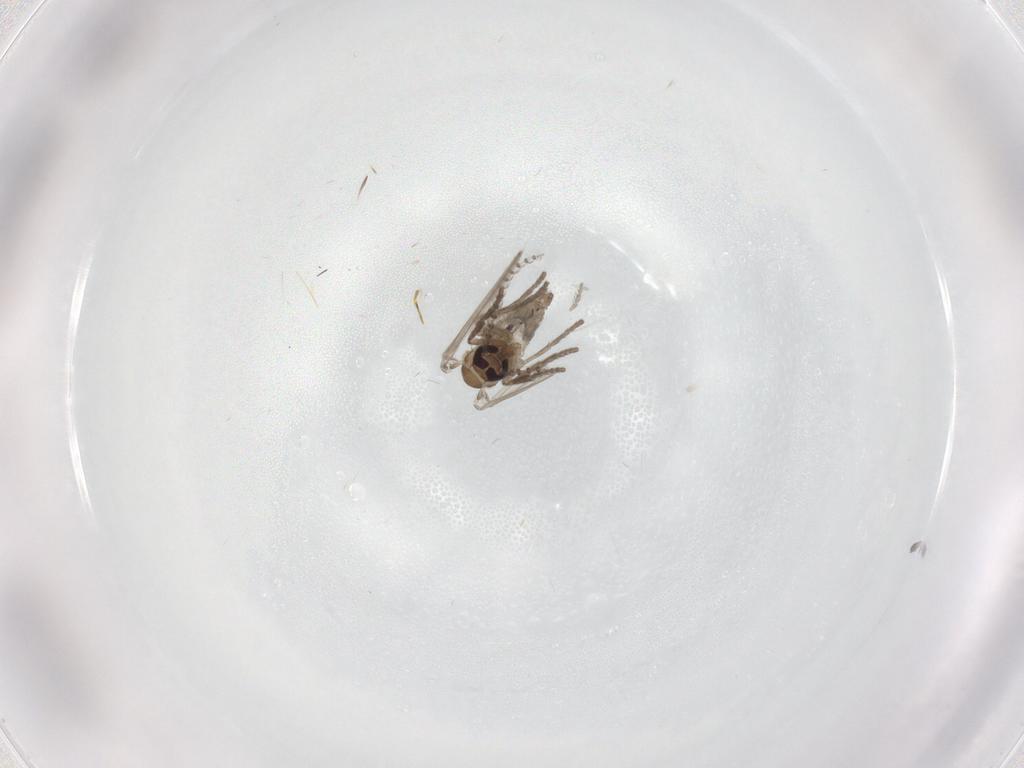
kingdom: Animalia
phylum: Arthropoda
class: Insecta
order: Diptera
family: Psychodidae
